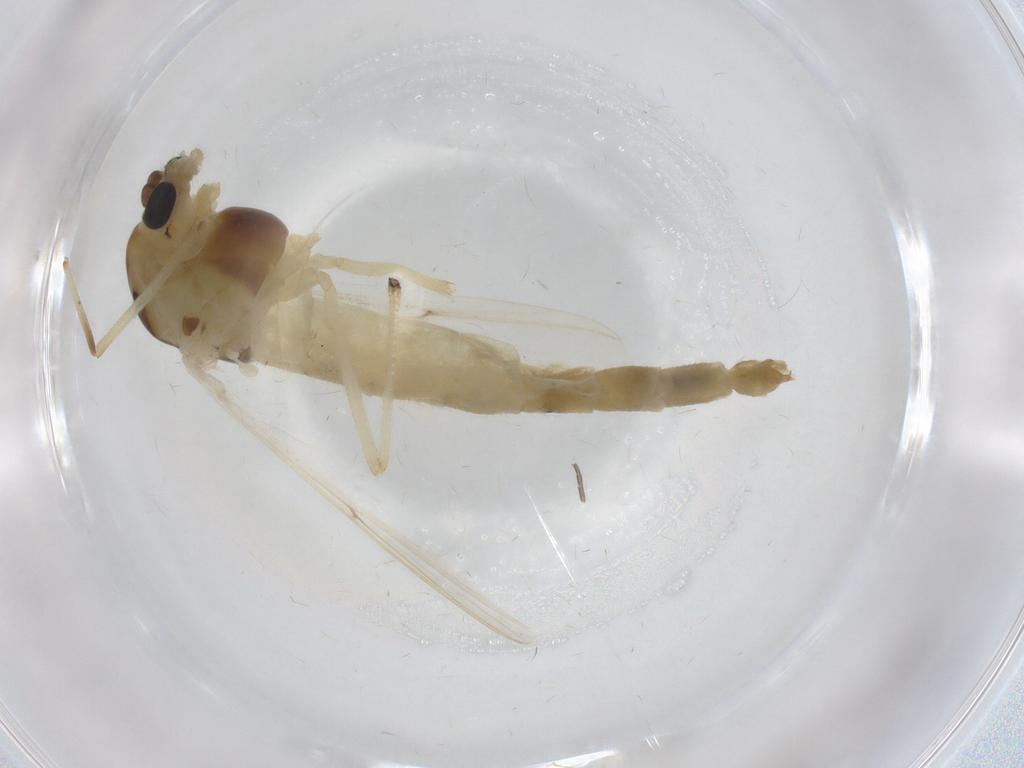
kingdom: Animalia
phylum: Arthropoda
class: Insecta
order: Diptera
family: Chironomidae
